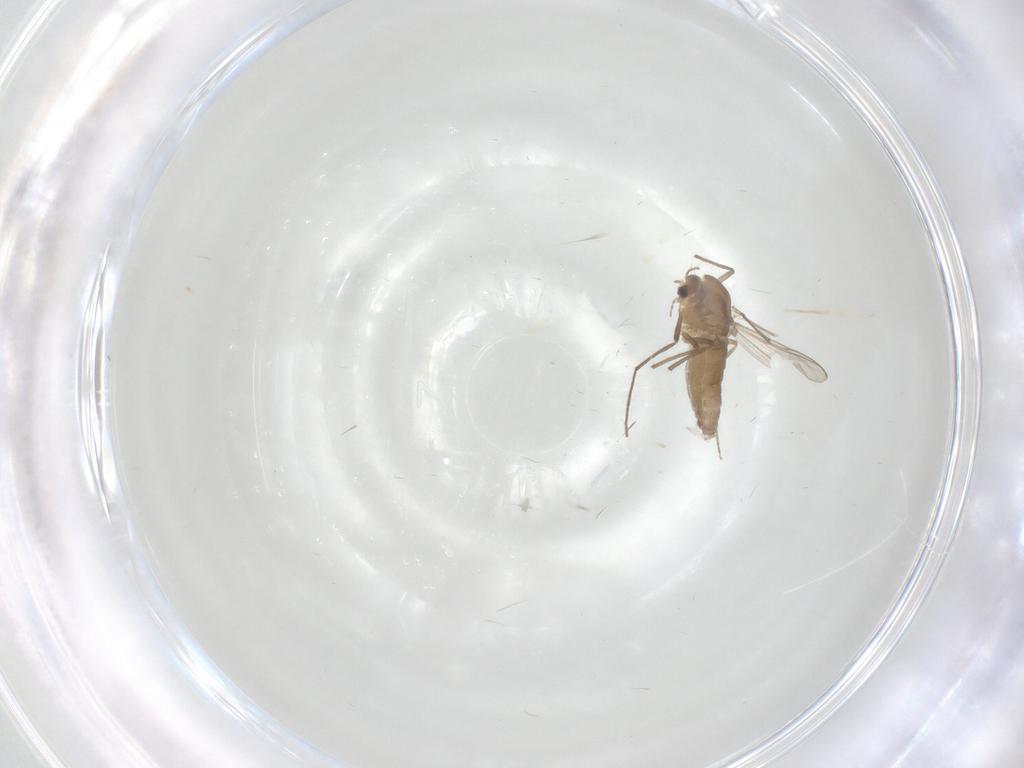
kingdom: Animalia
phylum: Arthropoda
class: Insecta
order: Diptera
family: Chironomidae
